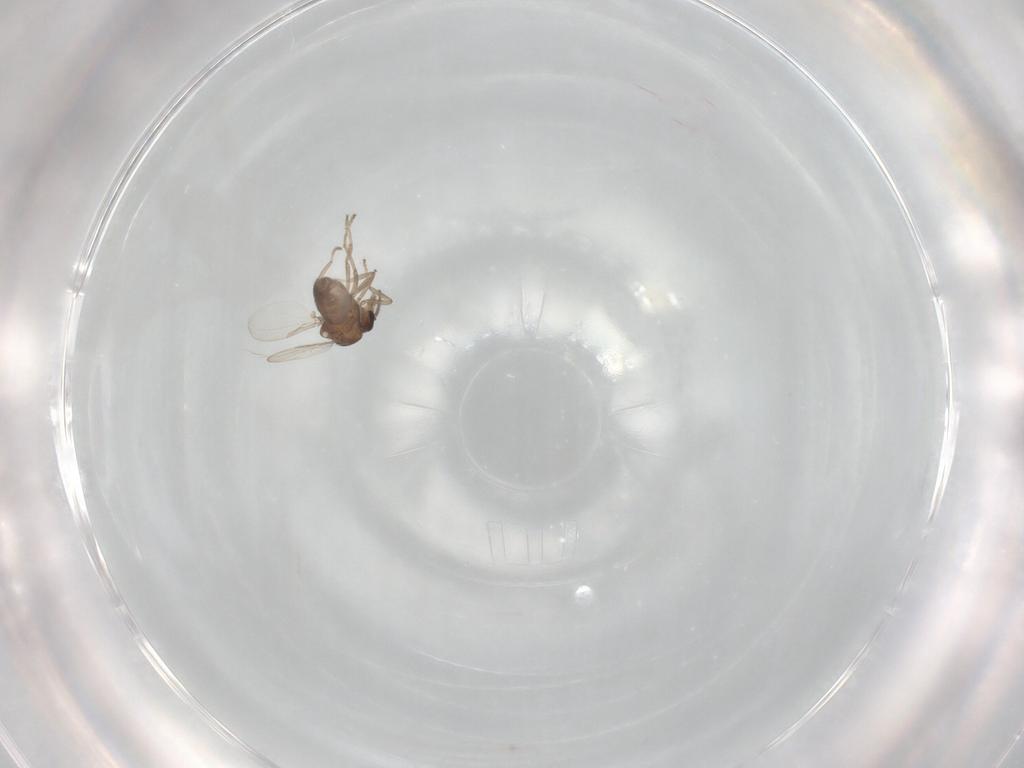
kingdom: Animalia
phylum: Arthropoda
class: Insecta
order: Diptera
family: Ceratopogonidae
